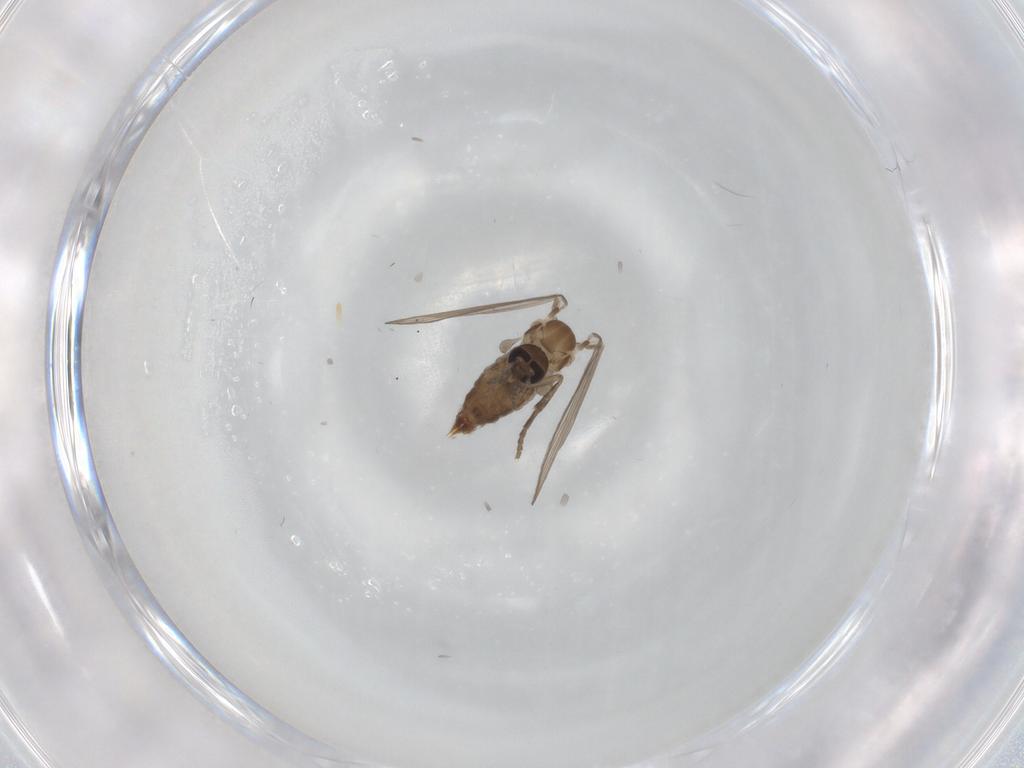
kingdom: Animalia
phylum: Arthropoda
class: Insecta
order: Diptera
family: Psychodidae
